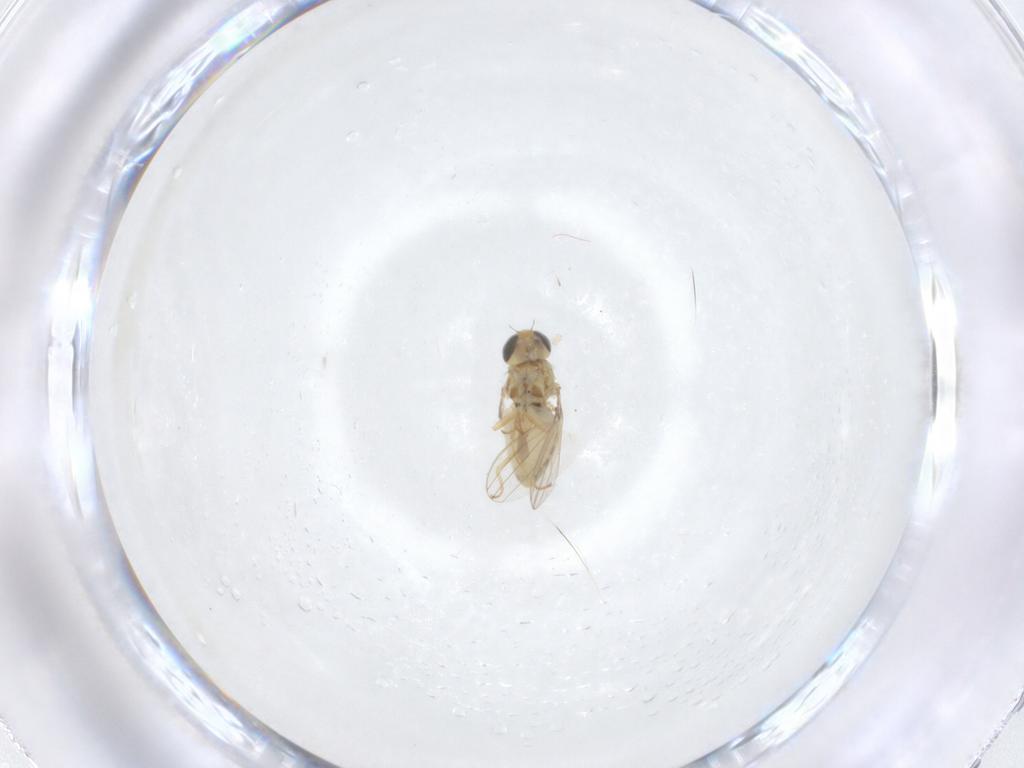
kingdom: Animalia
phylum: Arthropoda
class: Insecta
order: Diptera
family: Chyromyidae
